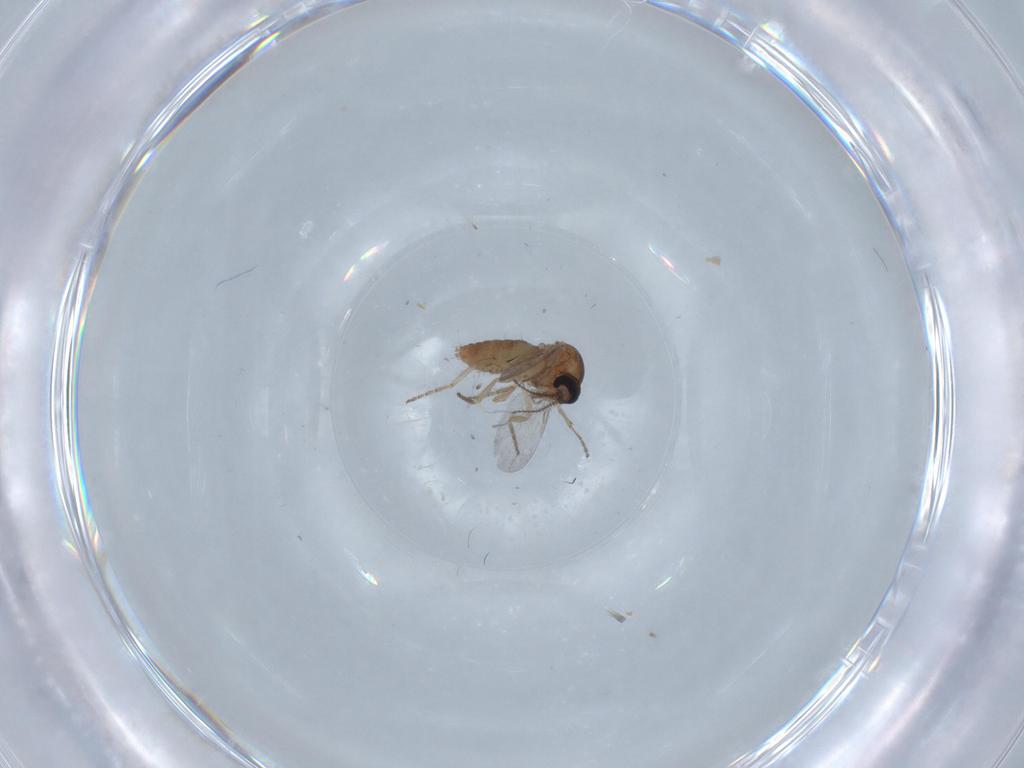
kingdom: Animalia
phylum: Arthropoda
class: Insecta
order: Diptera
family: Ceratopogonidae
